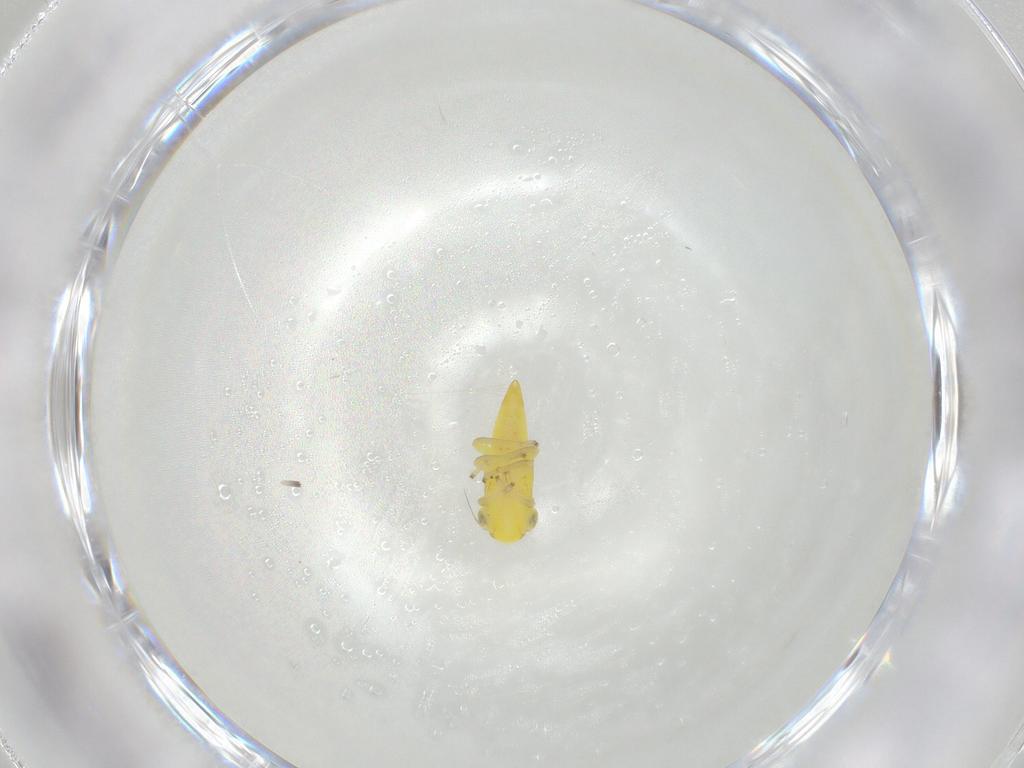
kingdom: Animalia
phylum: Arthropoda
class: Insecta
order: Hemiptera
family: Cicadellidae
